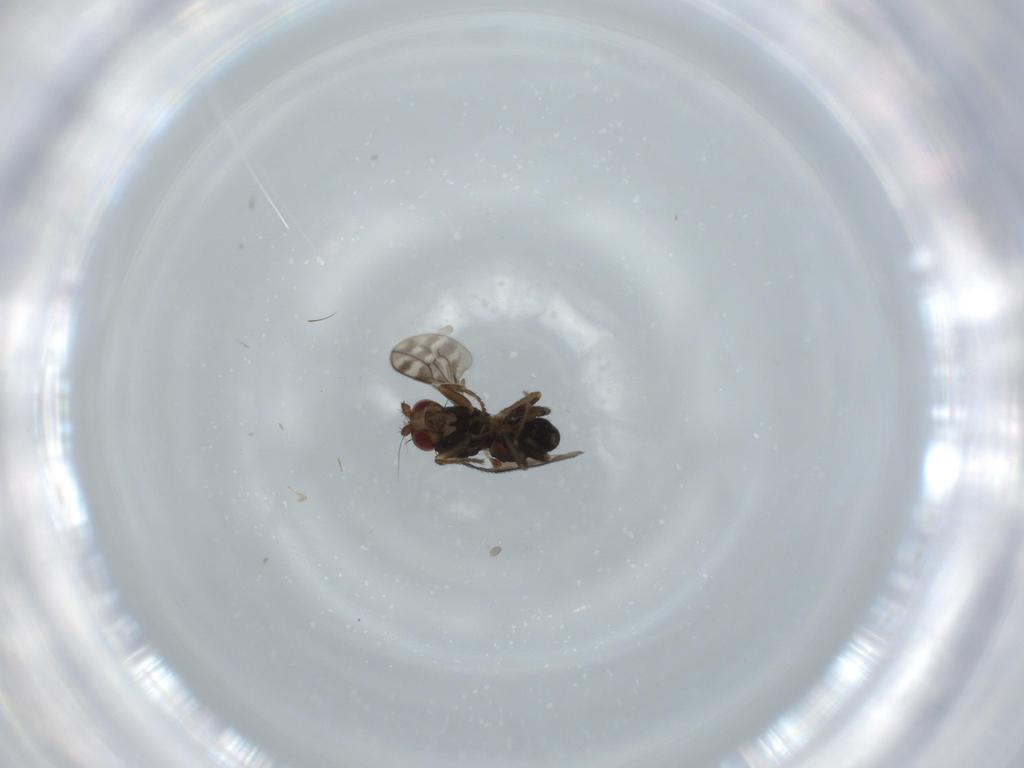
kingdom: Animalia
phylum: Arthropoda
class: Insecta
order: Diptera
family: Sphaeroceridae
